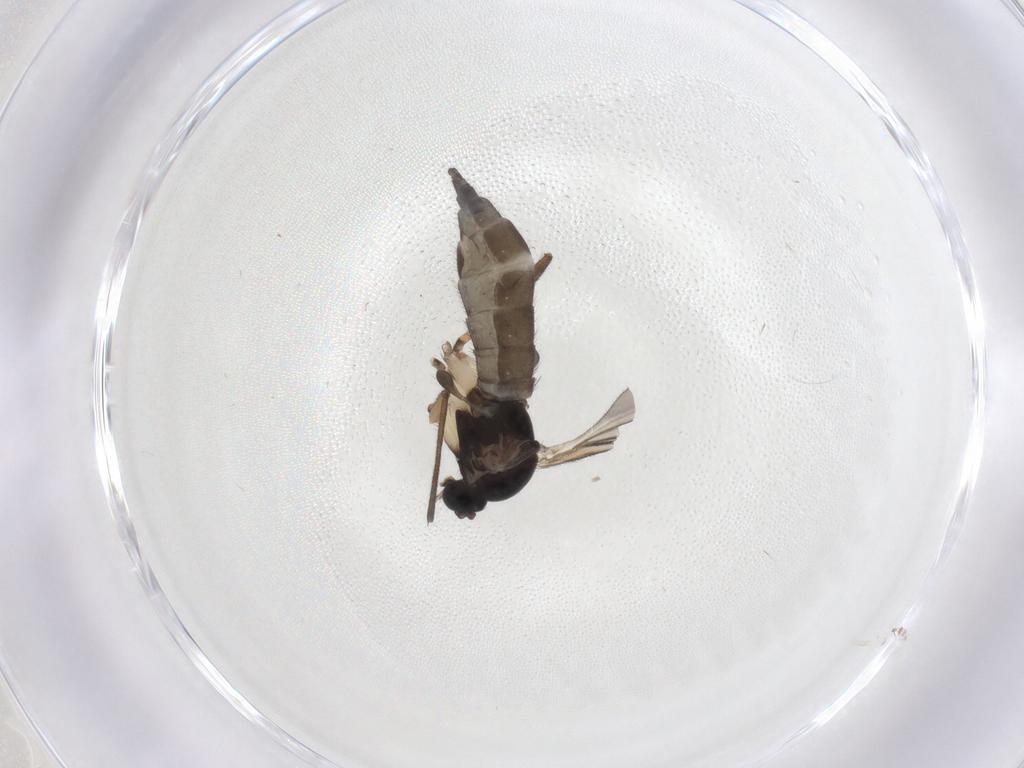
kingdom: Animalia
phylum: Arthropoda
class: Insecta
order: Diptera
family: Sciaridae
